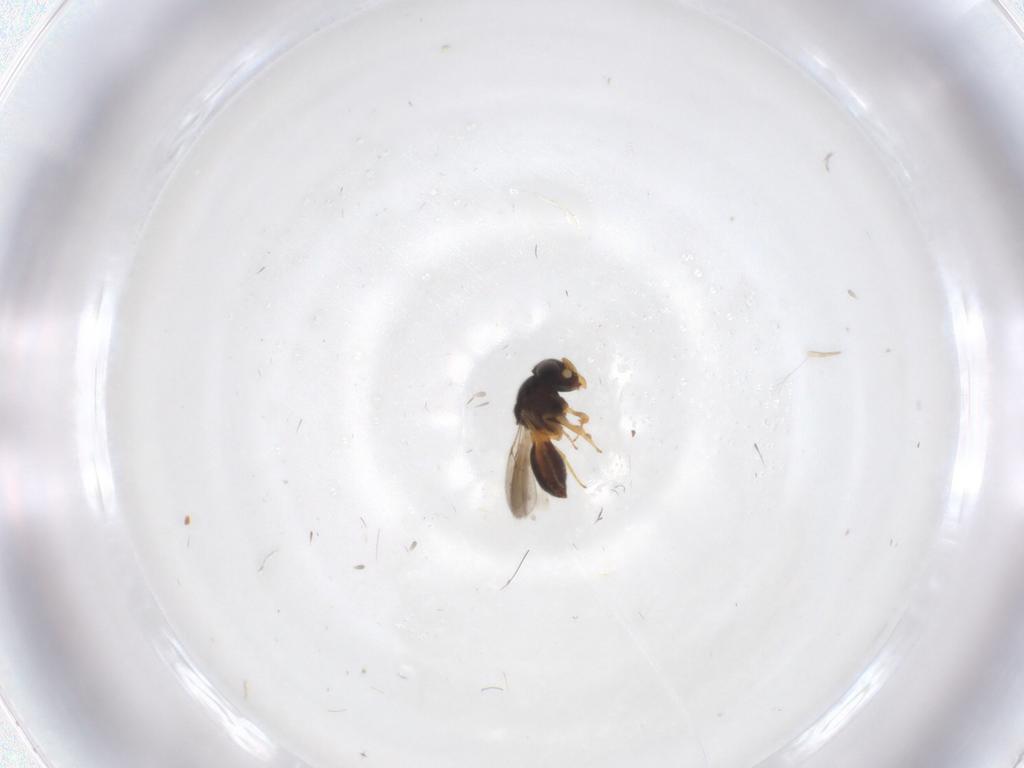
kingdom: Animalia
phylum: Arthropoda
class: Insecta
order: Hymenoptera
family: Scelionidae
